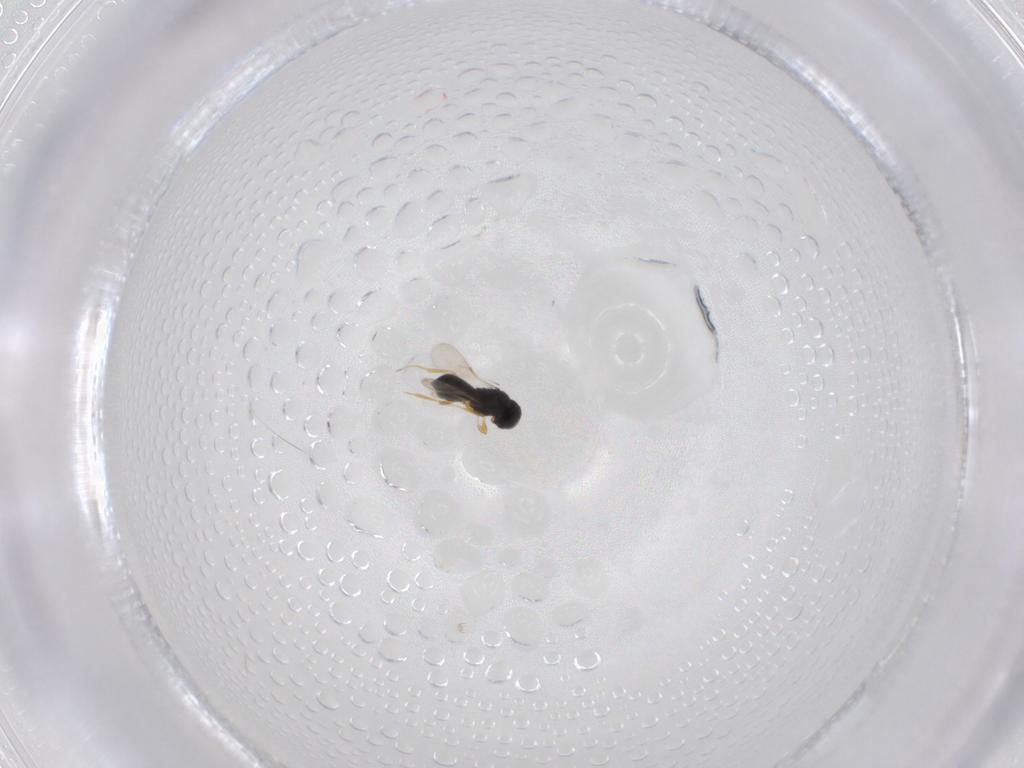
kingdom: Animalia
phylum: Arthropoda
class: Insecta
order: Hymenoptera
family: Scelionidae
